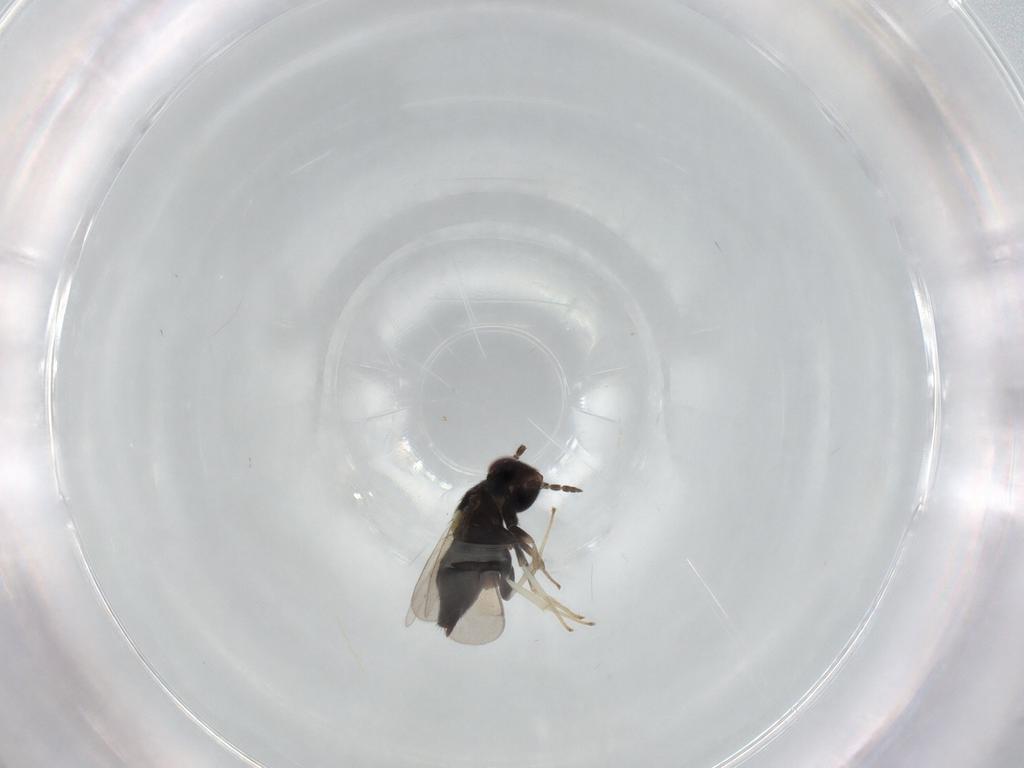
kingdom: Animalia
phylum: Arthropoda
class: Insecta
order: Hymenoptera
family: Aphelinidae
